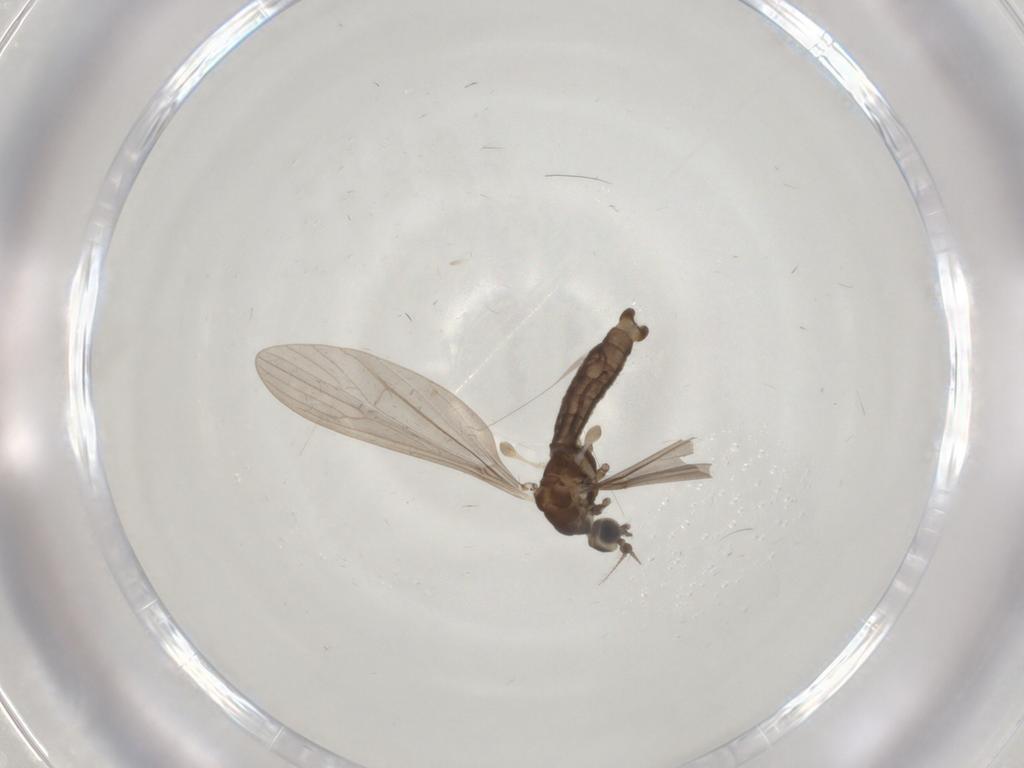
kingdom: Animalia
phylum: Arthropoda
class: Insecta
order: Diptera
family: Limoniidae
